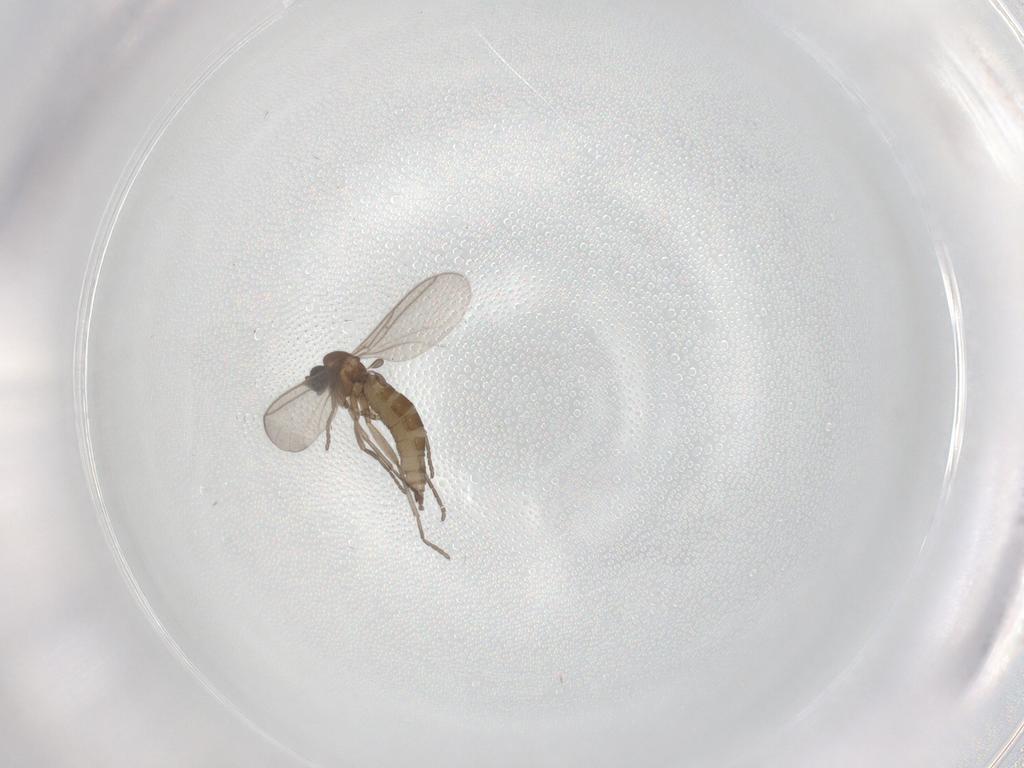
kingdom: Animalia
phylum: Arthropoda
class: Insecta
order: Diptera
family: Cecidomyiidae
